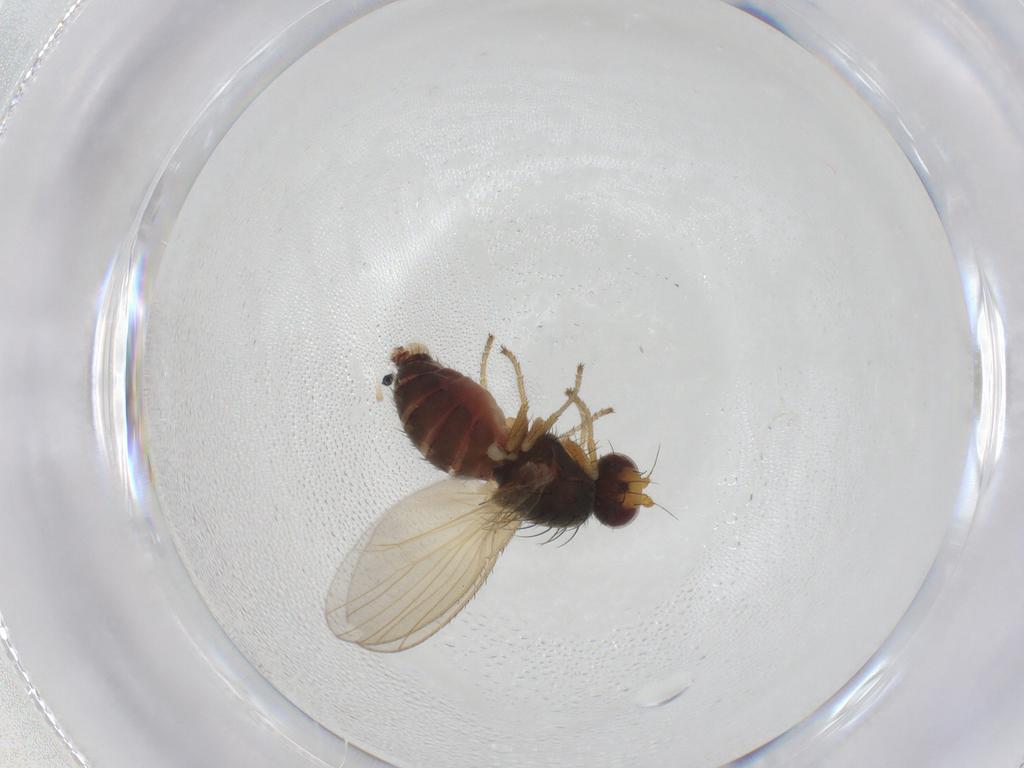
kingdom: Animalia
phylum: Arthropoda
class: Insecta
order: Diptera
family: Heleomyzidae
